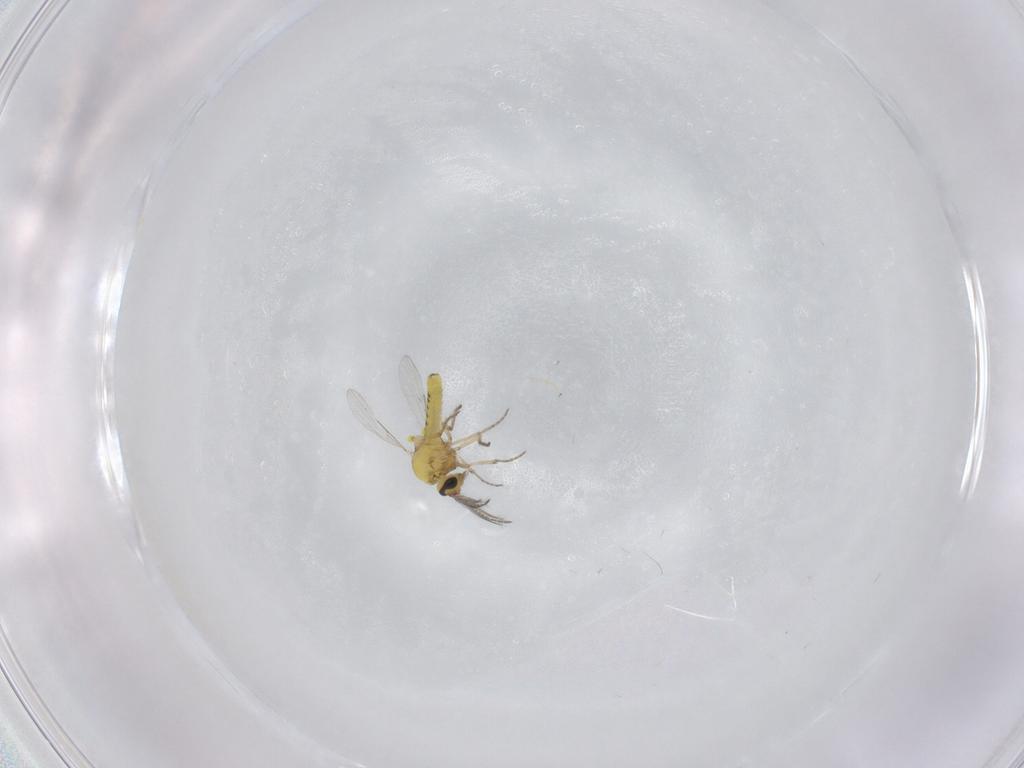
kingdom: Animalia
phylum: Arthropoda
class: Insecta
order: Diptera
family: Ceratopogonidae
